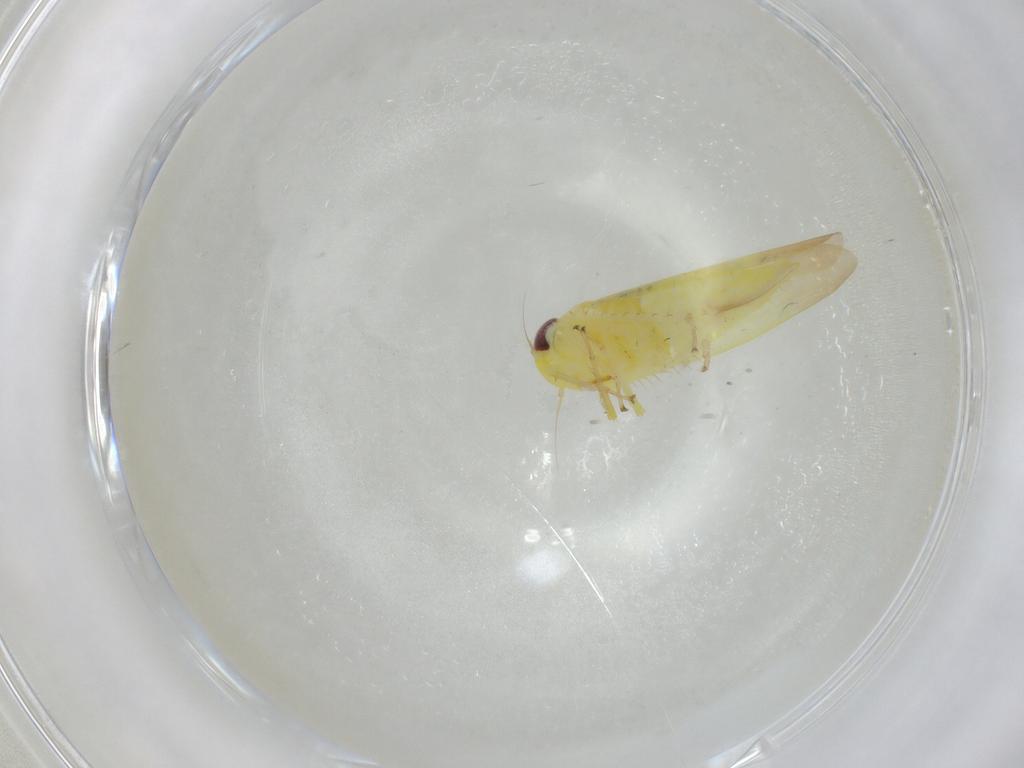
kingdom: Animalia
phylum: Arthropoda
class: Insecta
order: Hemiptera
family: Cicadellidae
